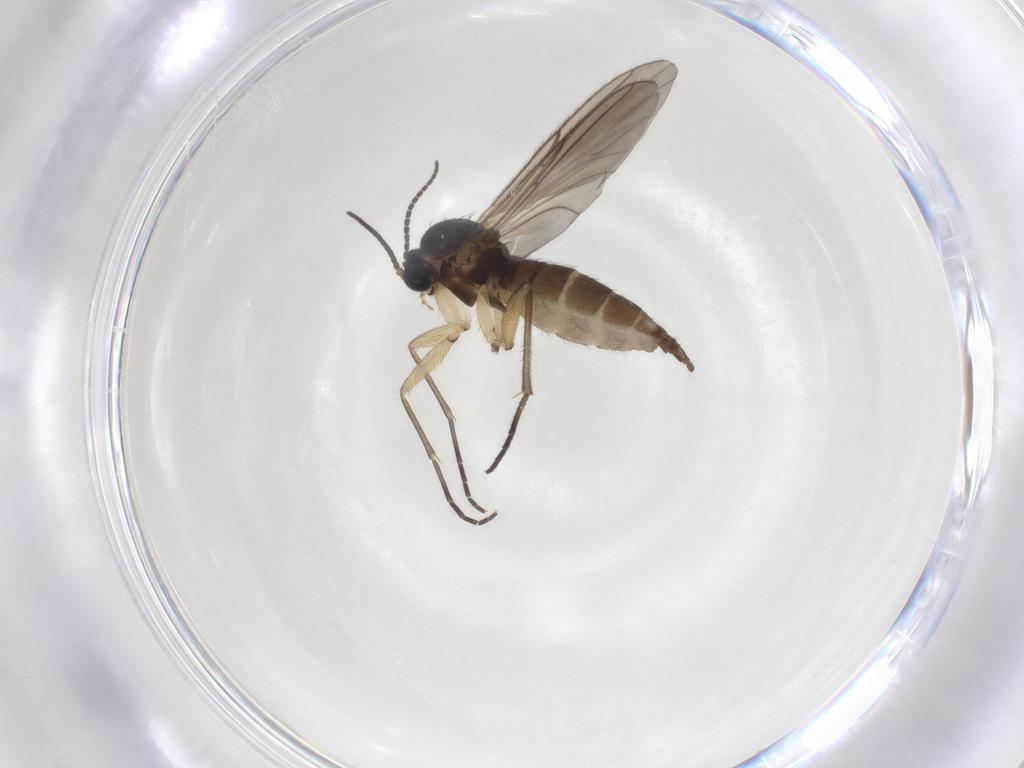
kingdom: Animalia
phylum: Arthropoda
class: Insecta
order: Diptera
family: Sciaridae
